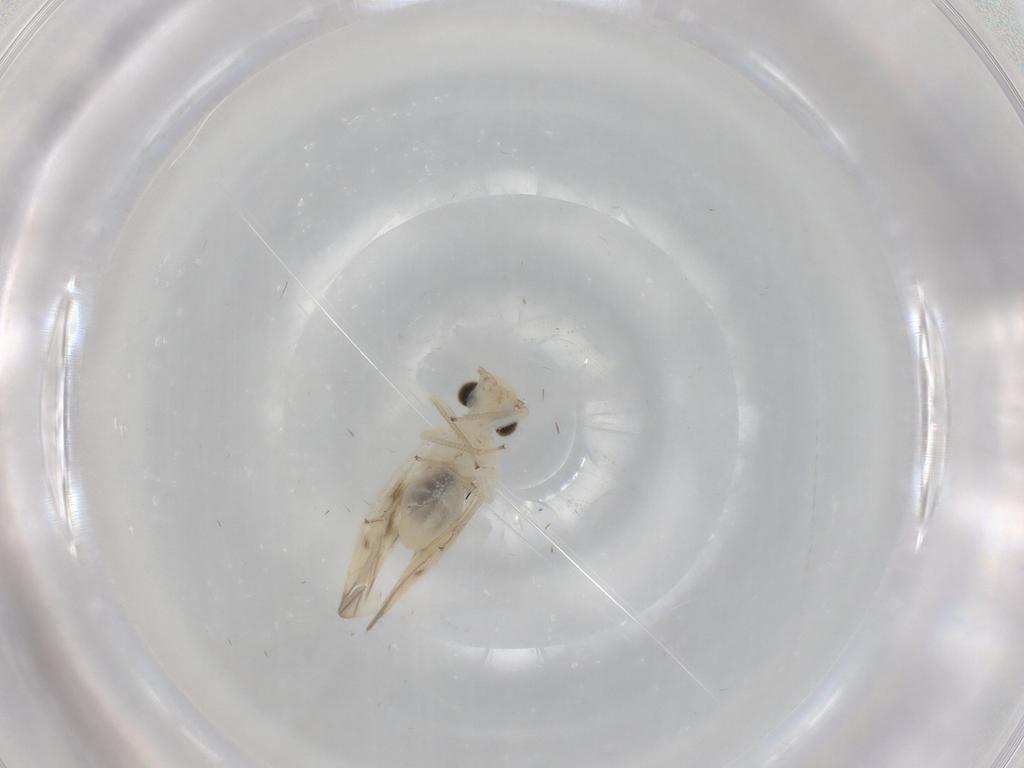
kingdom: Animalia
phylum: Arthropoda
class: Insecta
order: Psocodea
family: Caeciliusidae
